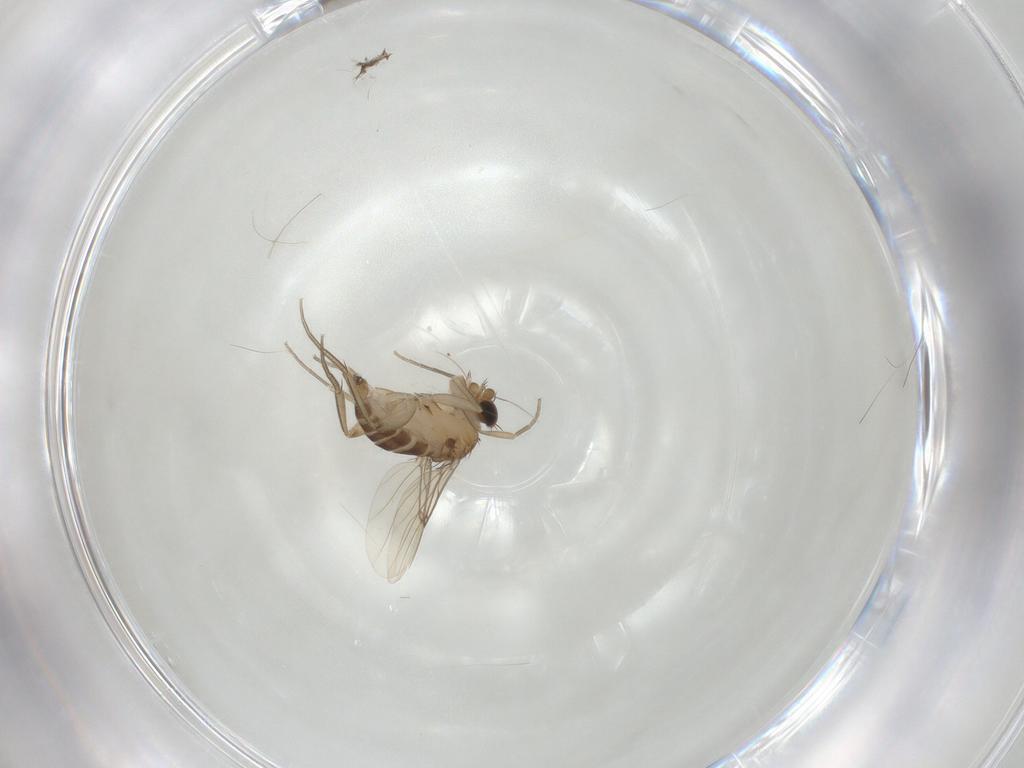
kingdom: Animalia
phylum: Arthropoda
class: Insecta
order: Diptera
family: Phoridae
